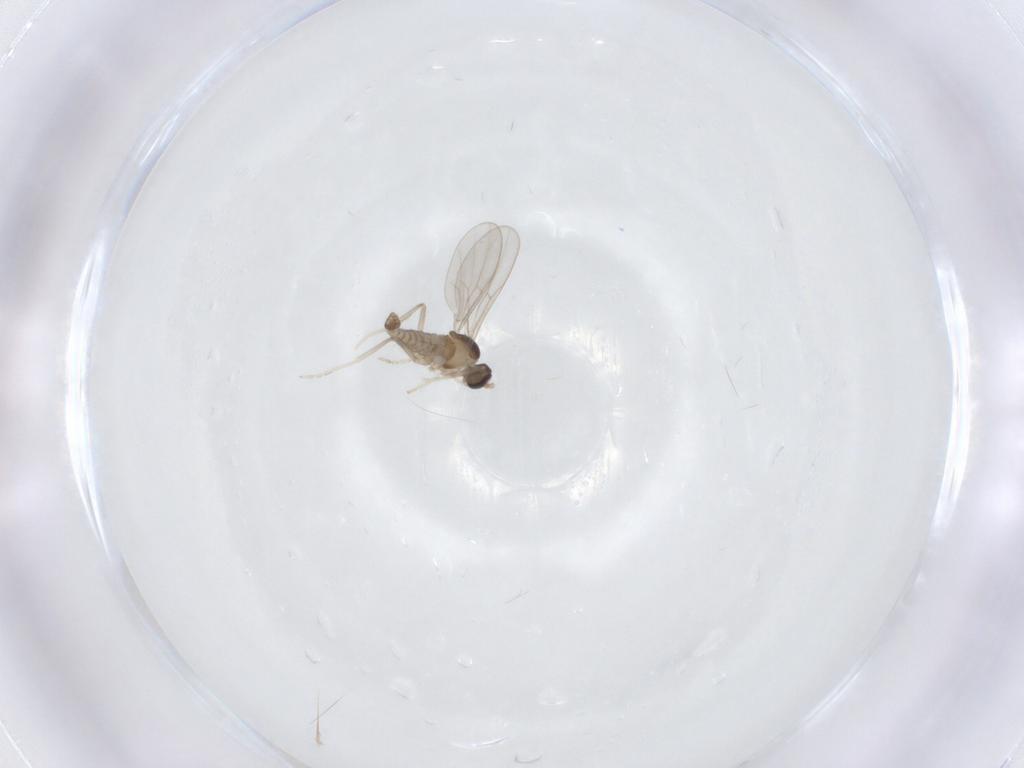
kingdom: Animalia
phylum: Arthropoda
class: Insecta
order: Diptera
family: Cecidomyiidae
